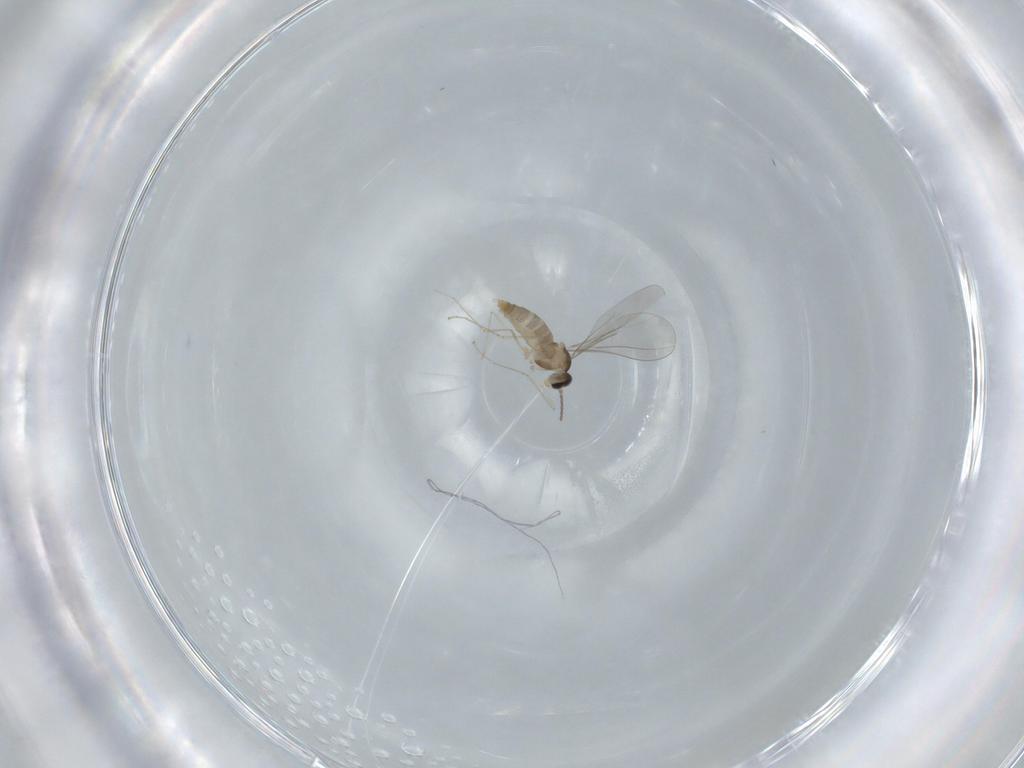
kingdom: Animalia
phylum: Arthropoda
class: Insecta
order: Diptera
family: Cecidomyiidae
